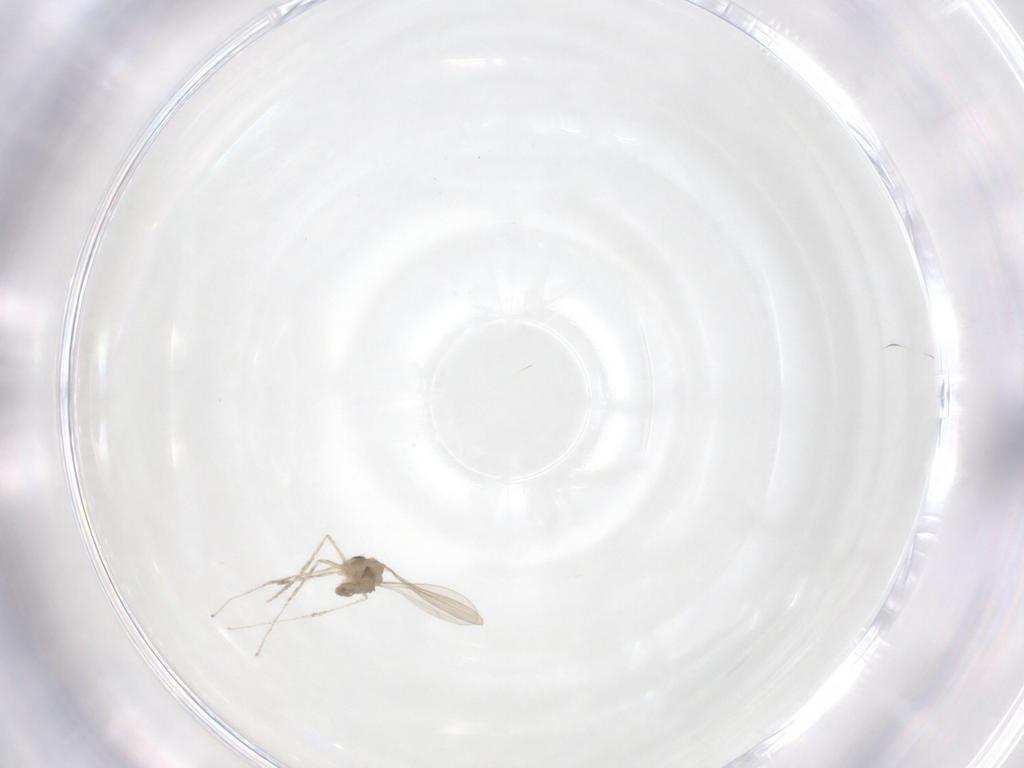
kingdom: Animalia
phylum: Arthropoda
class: Insecta
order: Diptera
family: Cecidomyiidae
